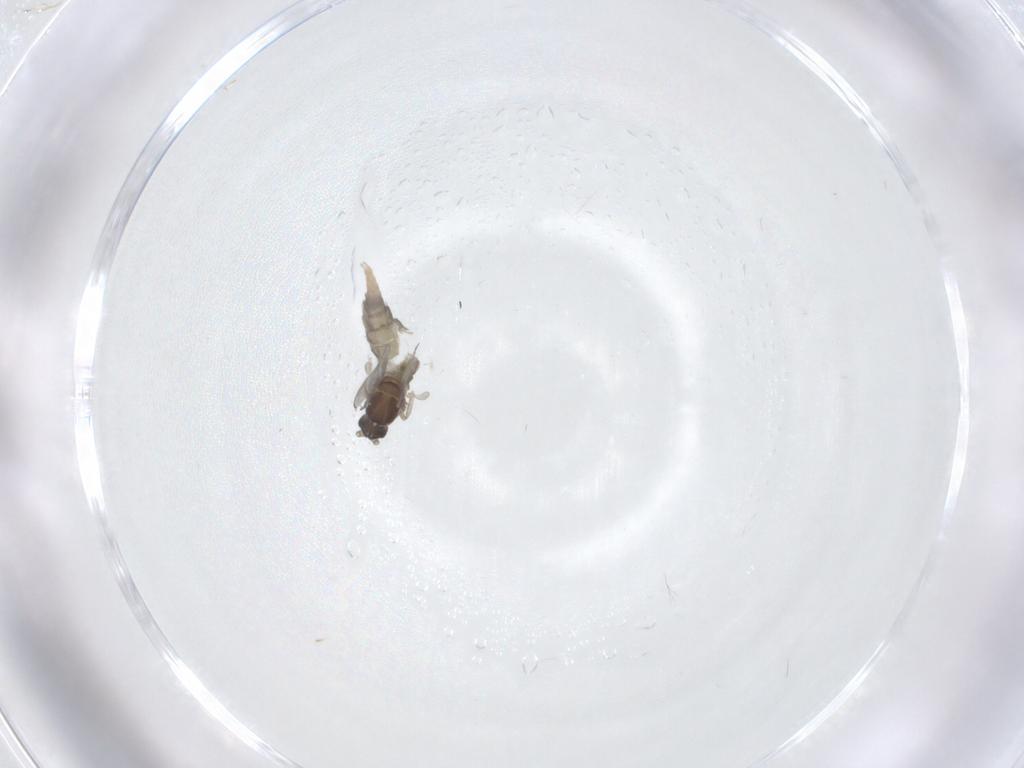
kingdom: Animalia
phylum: Arthropoda
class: Insecta
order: Diptera
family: Cecidomyiidae
